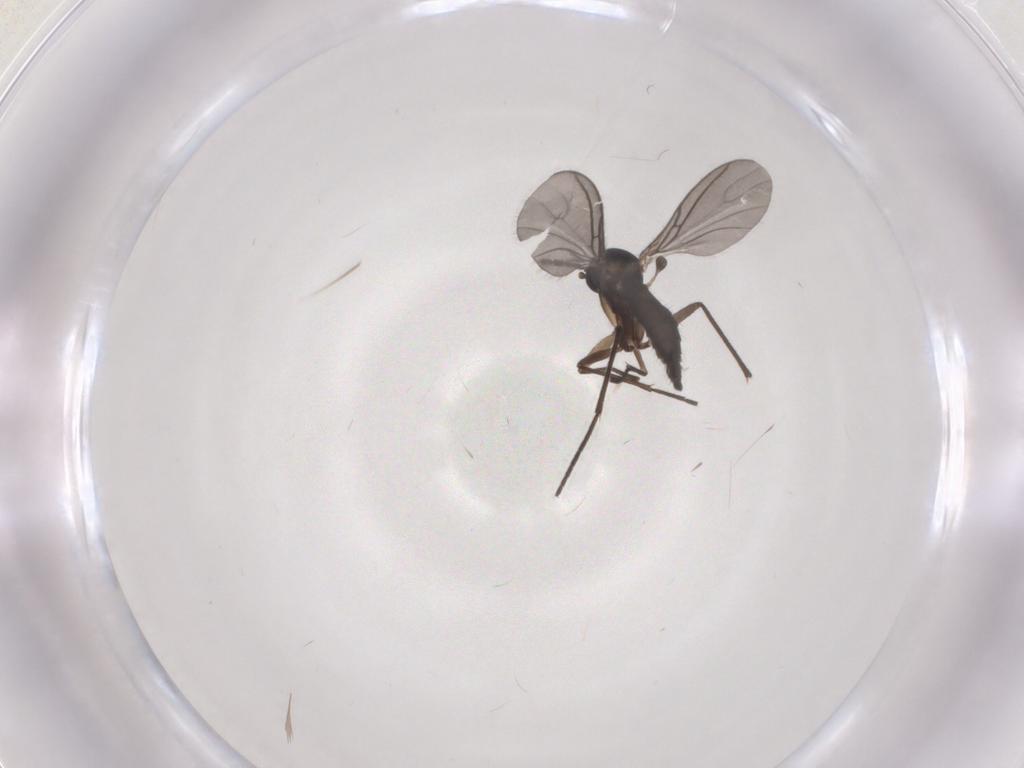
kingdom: Animalia
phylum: Arthropoda
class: Insecta
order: Diptera
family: Sciaridae
